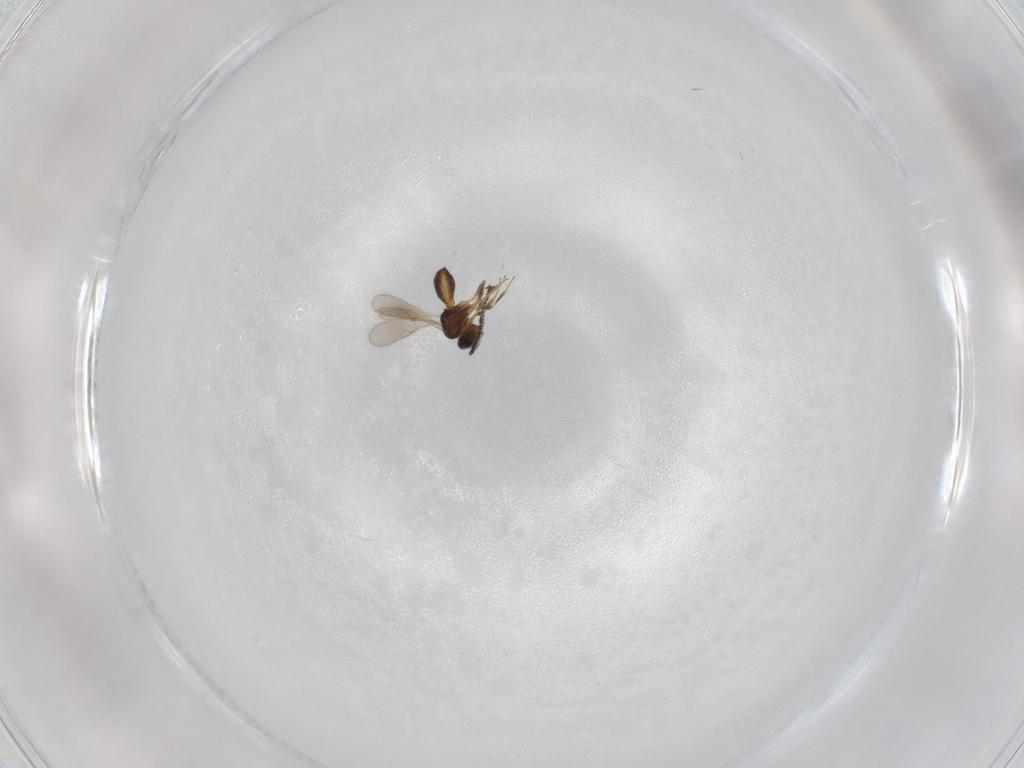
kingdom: Animalia
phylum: Arthropoda
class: Insecta
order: Hymenoptera
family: Scelionidae
